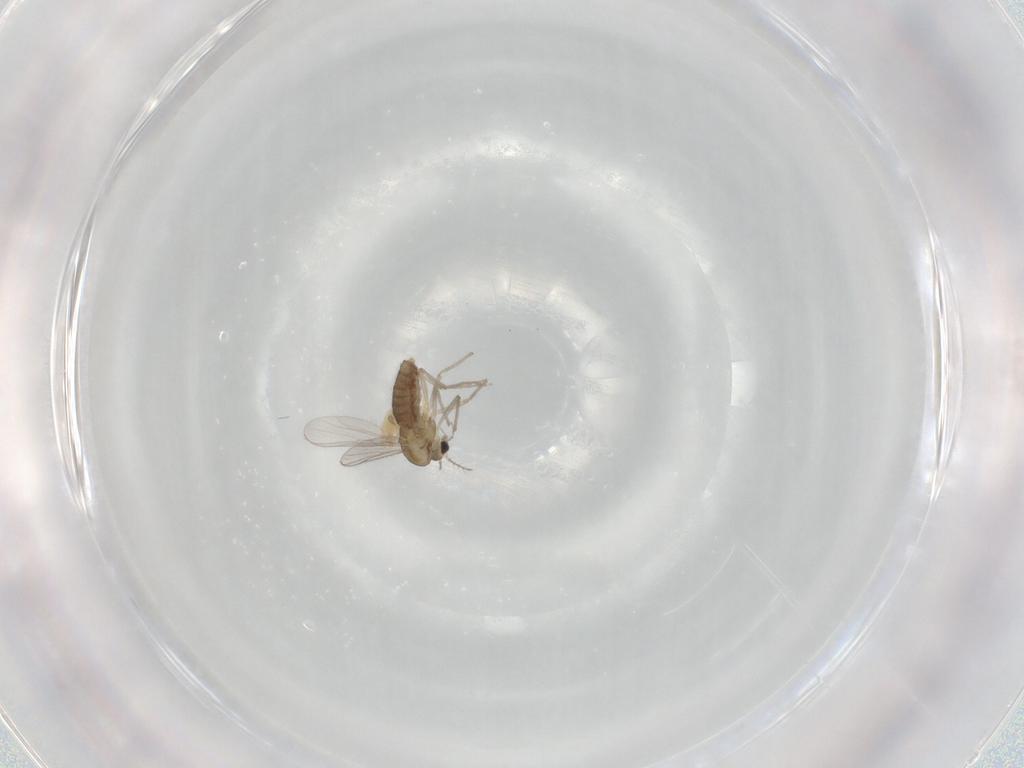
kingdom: Animalia
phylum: Arthropoda
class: Insecta
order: Diptera
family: Chironomidae
